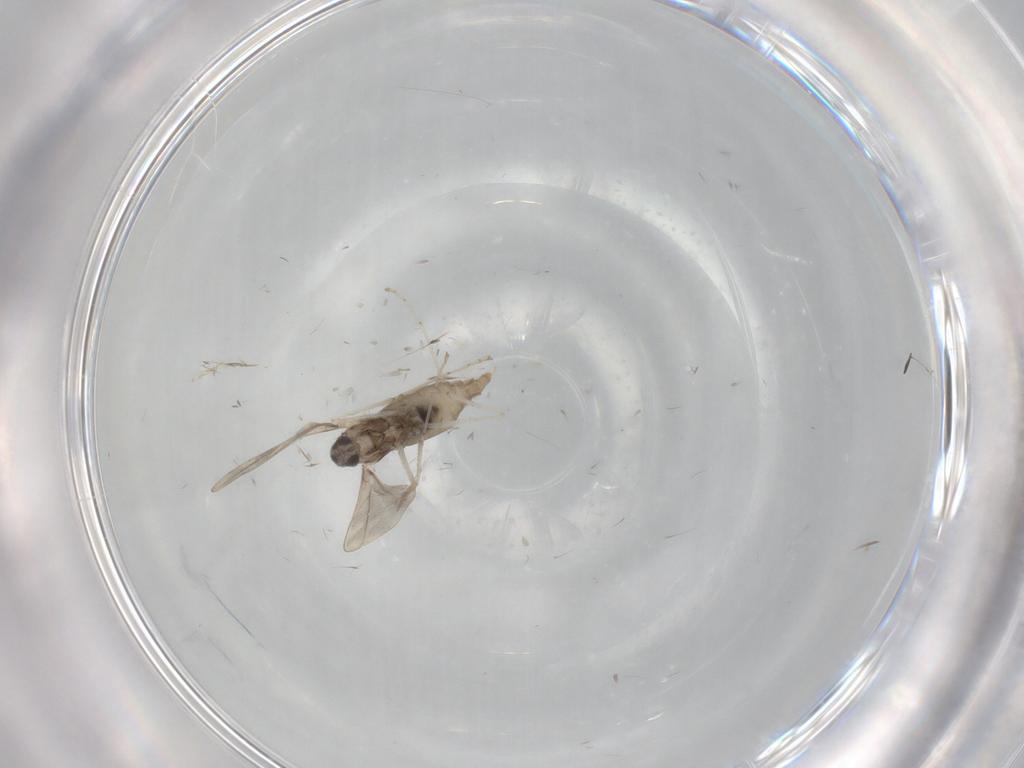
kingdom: Animalia
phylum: Arthropoda
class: Insecta
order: Diptera
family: Cecidomyiidae
